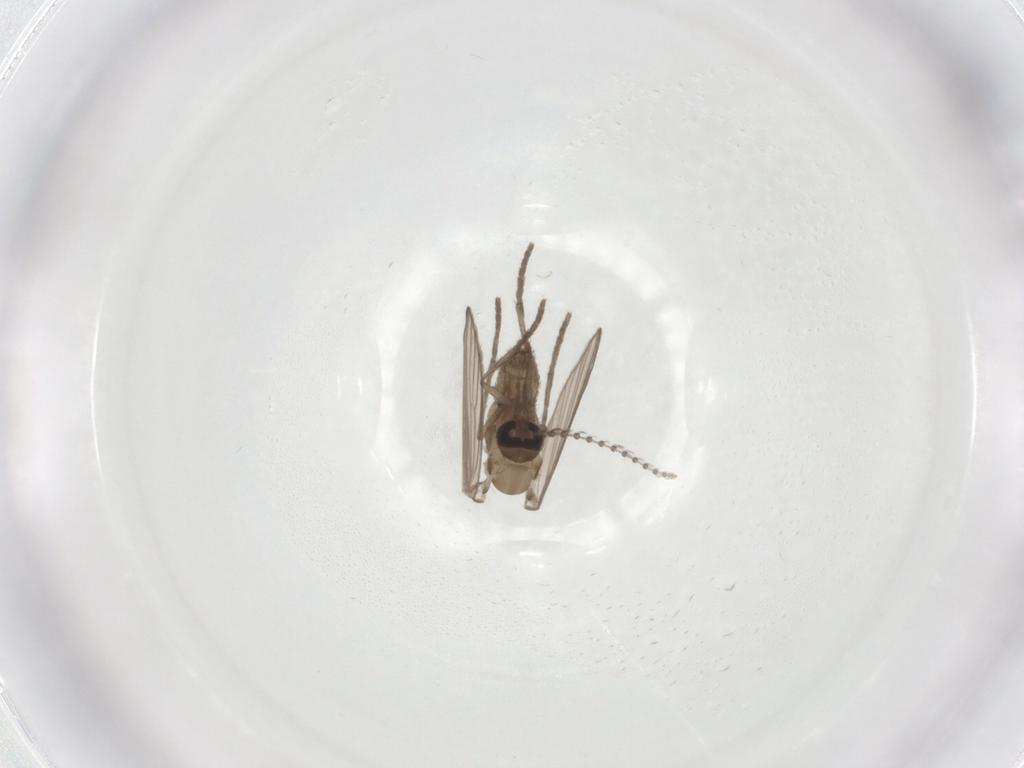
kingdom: Animalia
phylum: Arthropoda
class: Insecta
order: Diptera
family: Psychodidae
